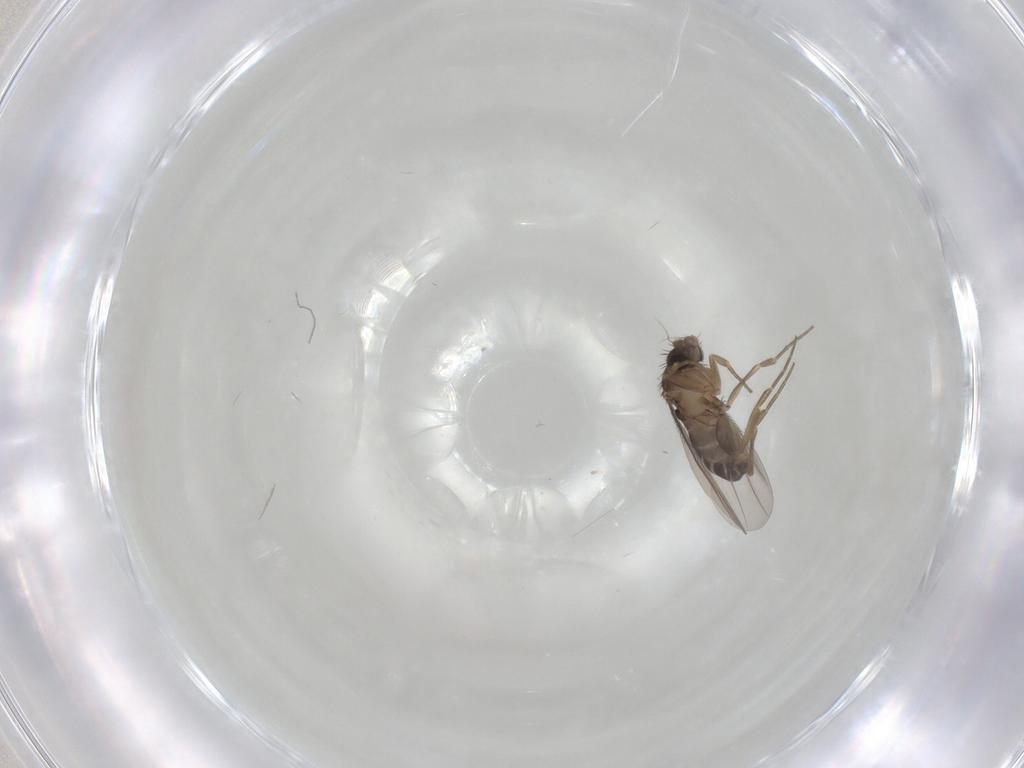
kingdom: Animalia
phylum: Arthropoda
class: Insecta
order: Diptera
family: Cecidomyiidae
